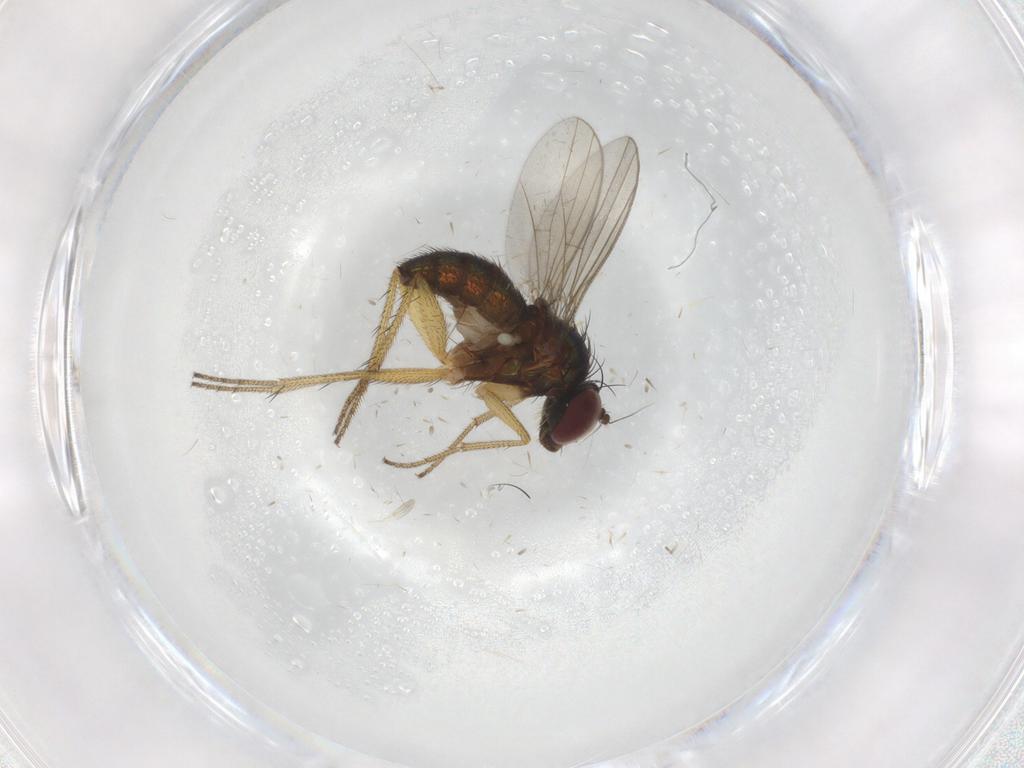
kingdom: Animalia
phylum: Arthropoda
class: Insecta
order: Diptera
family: Dolichopodidae
